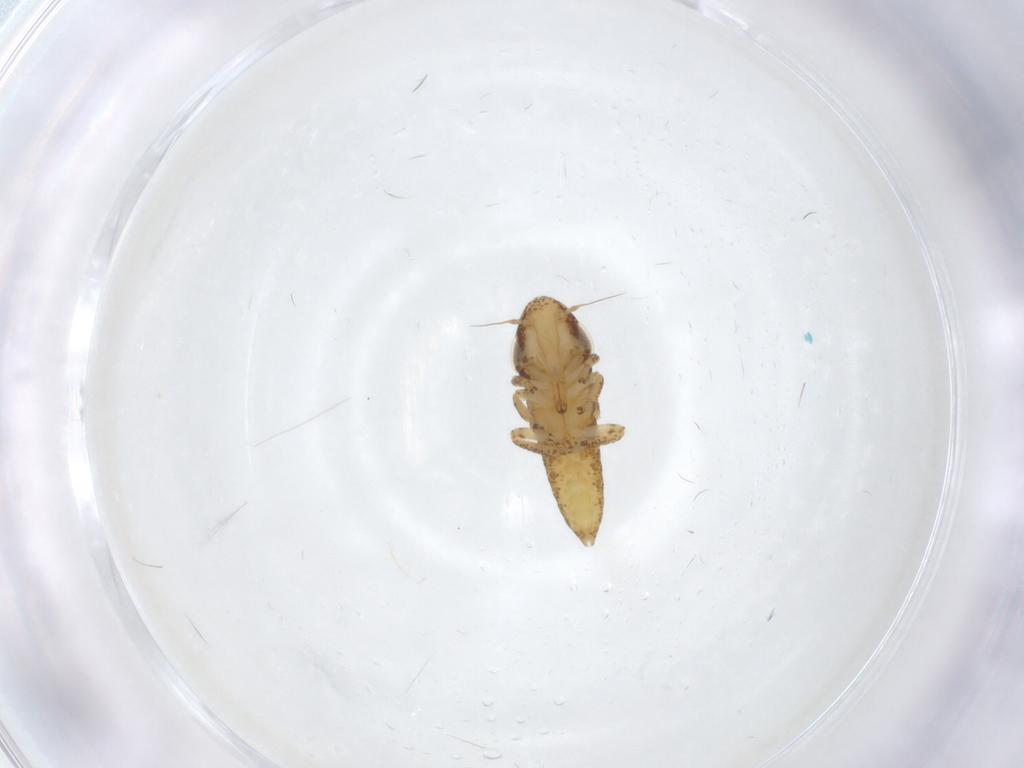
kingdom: Animalia
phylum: Arthropoda
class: Insecta
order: Hemiptera
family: Cicadellidae
